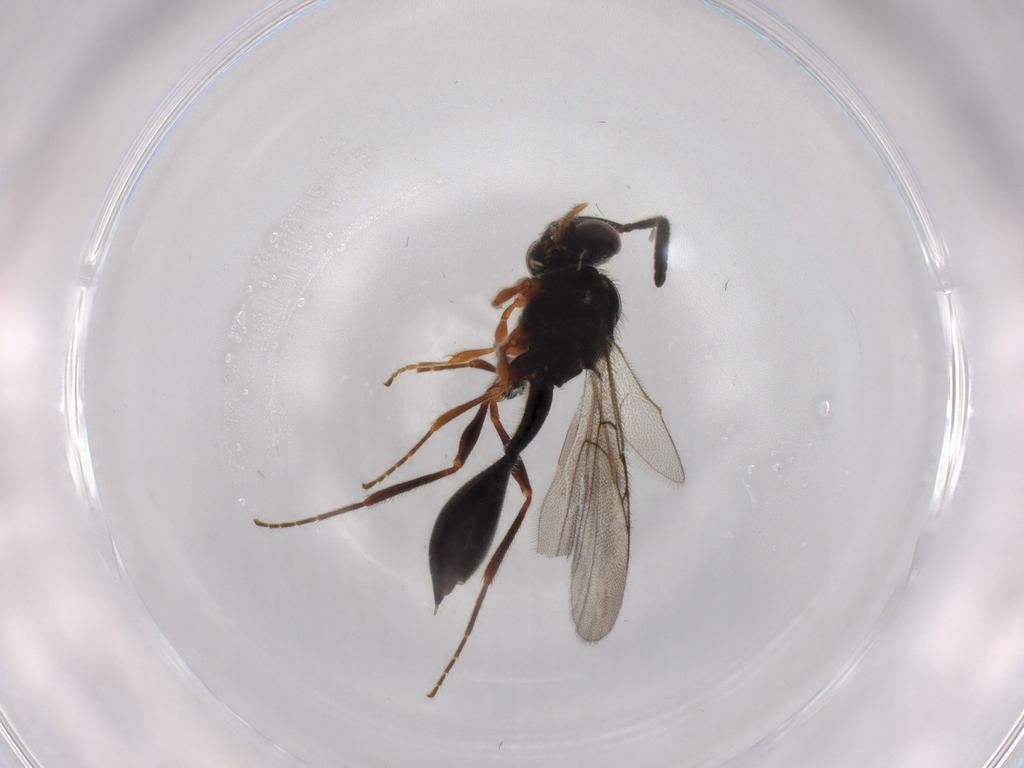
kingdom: Animalia
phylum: Arthropoda
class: Insecta
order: Hymenoptera
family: Diapriidae
